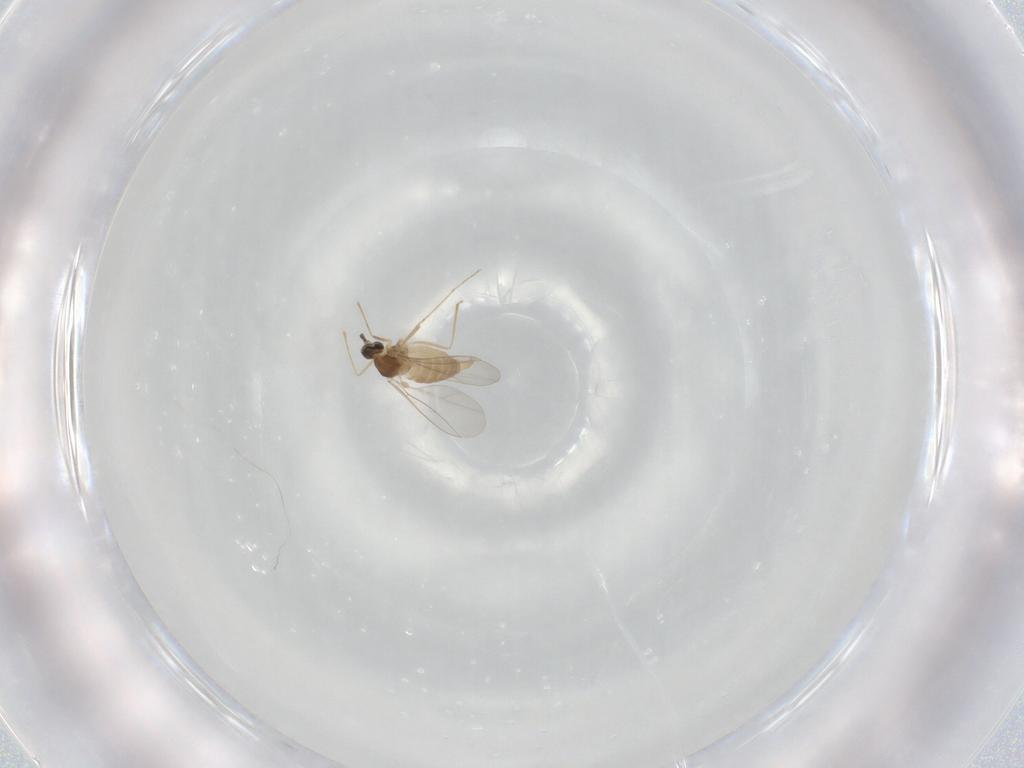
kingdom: Animalia
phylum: Arthropoda
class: Insecta
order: Diptera
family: Cecidomyiidae
